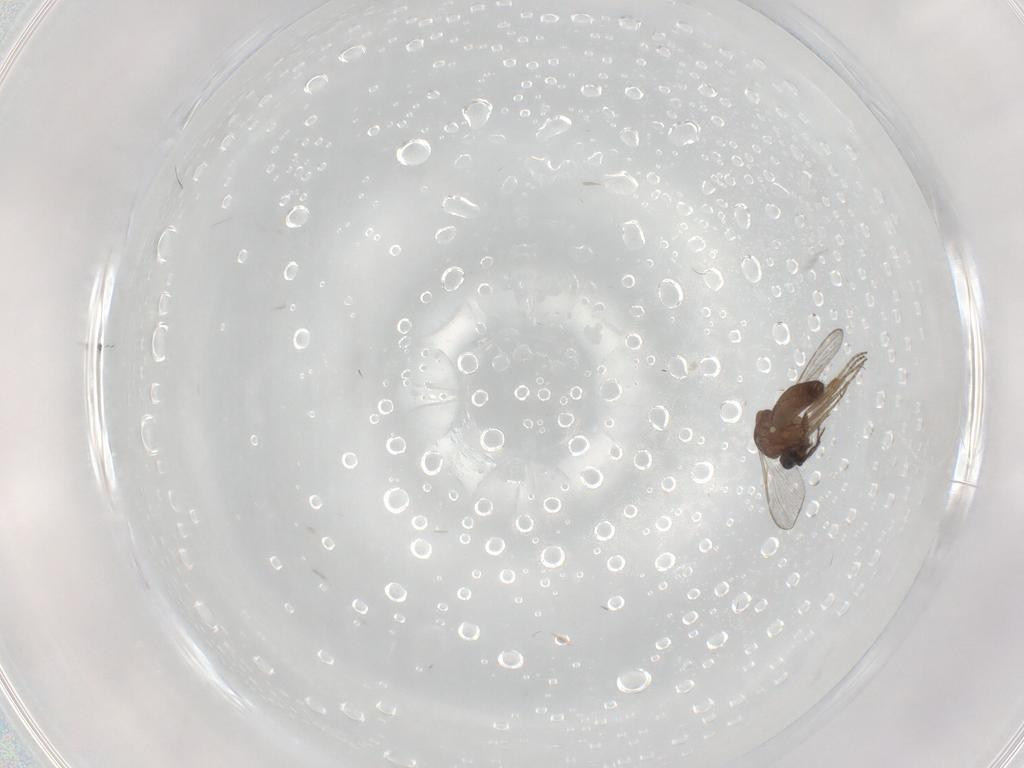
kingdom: Animalia
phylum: Arthropoda
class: Insecta
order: Diptera
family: Ceratopogonidae
